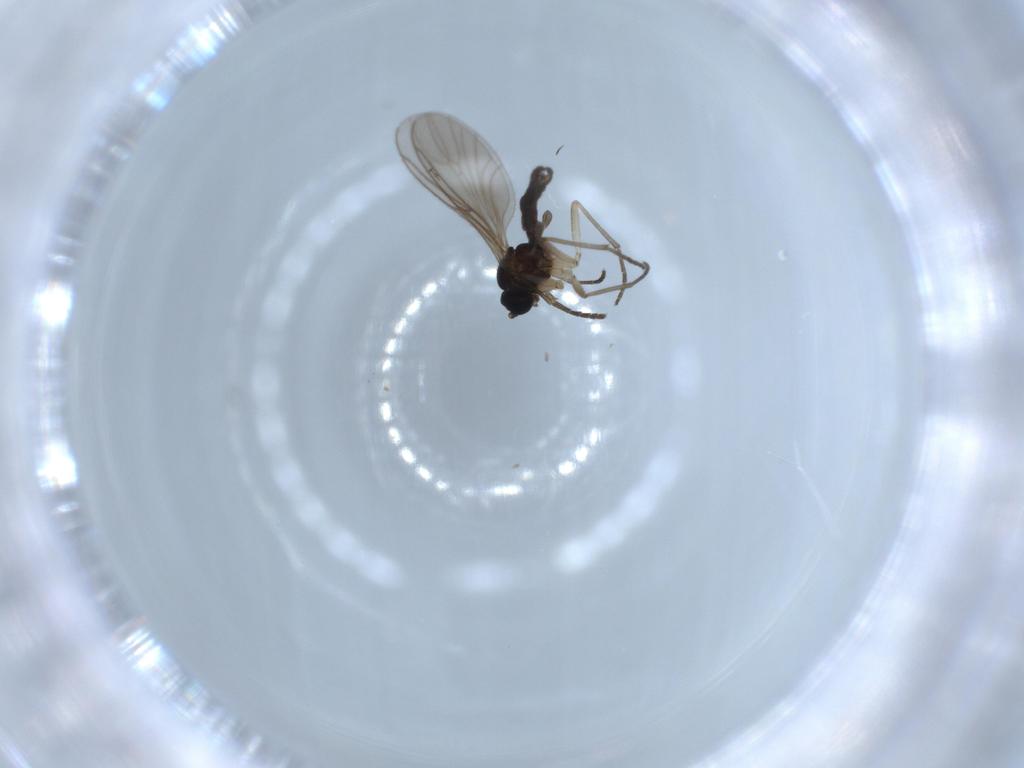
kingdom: Animalia
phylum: Arthropoda
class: Insecta
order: Diptera
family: Sciaridae
